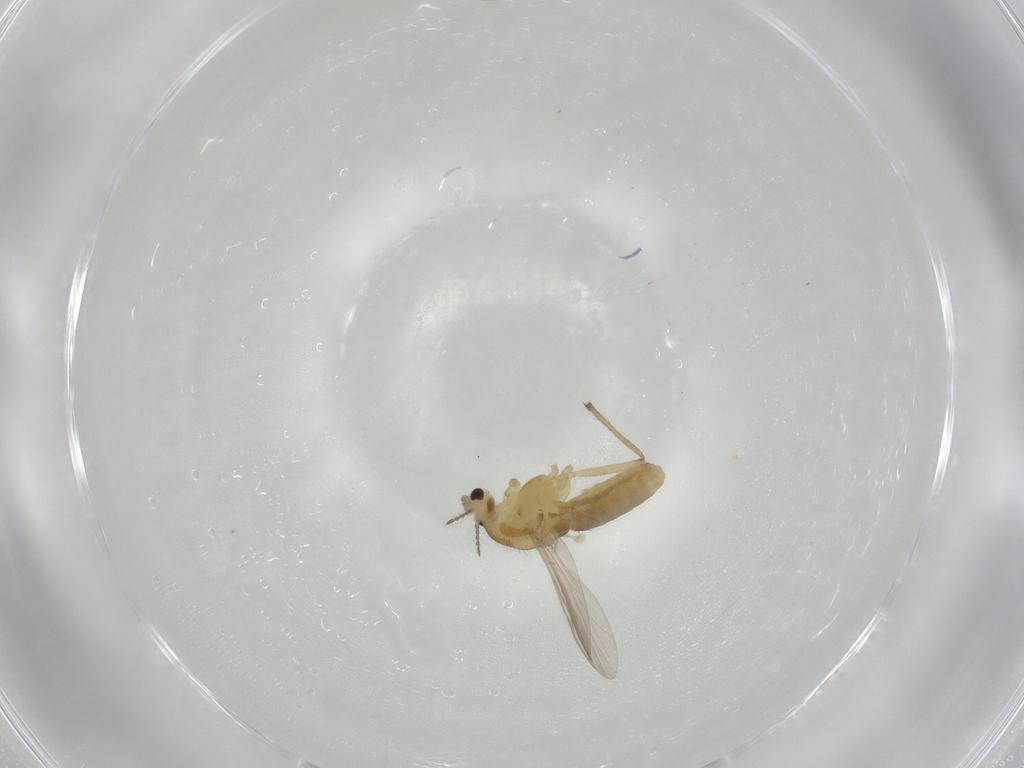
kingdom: Animalia
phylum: Arthropoda
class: Insecta
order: Diptera
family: Chironomidae
